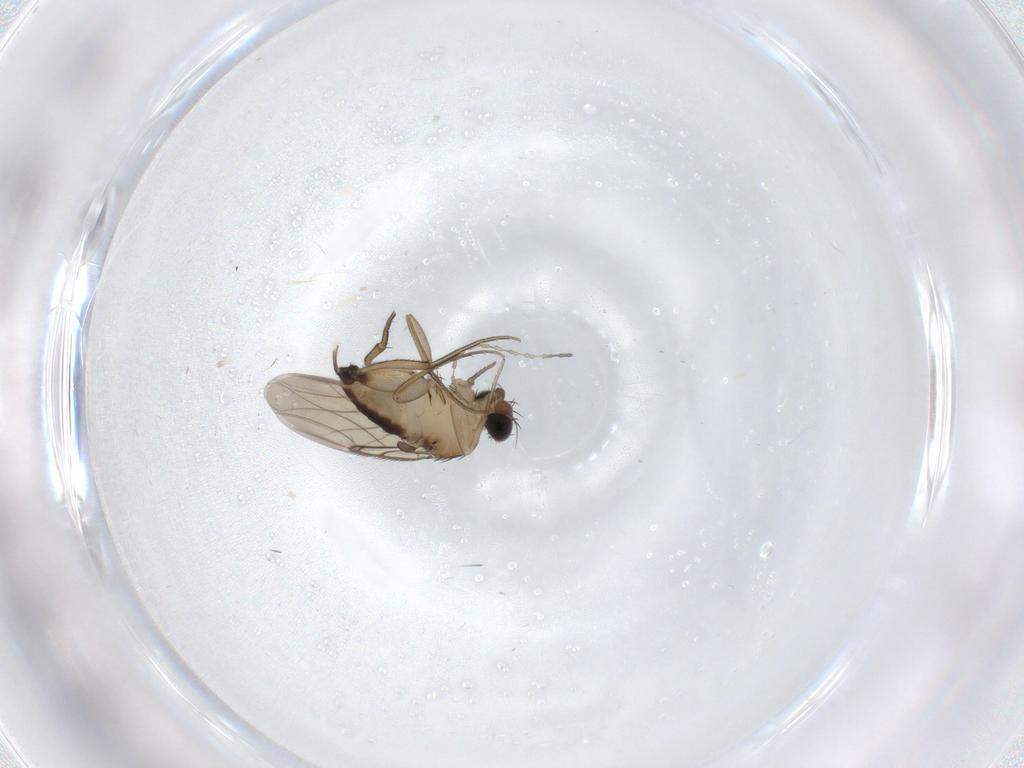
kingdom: Animalia
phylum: Arthropoda
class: Insecta
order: Diptera
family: Phoridae
